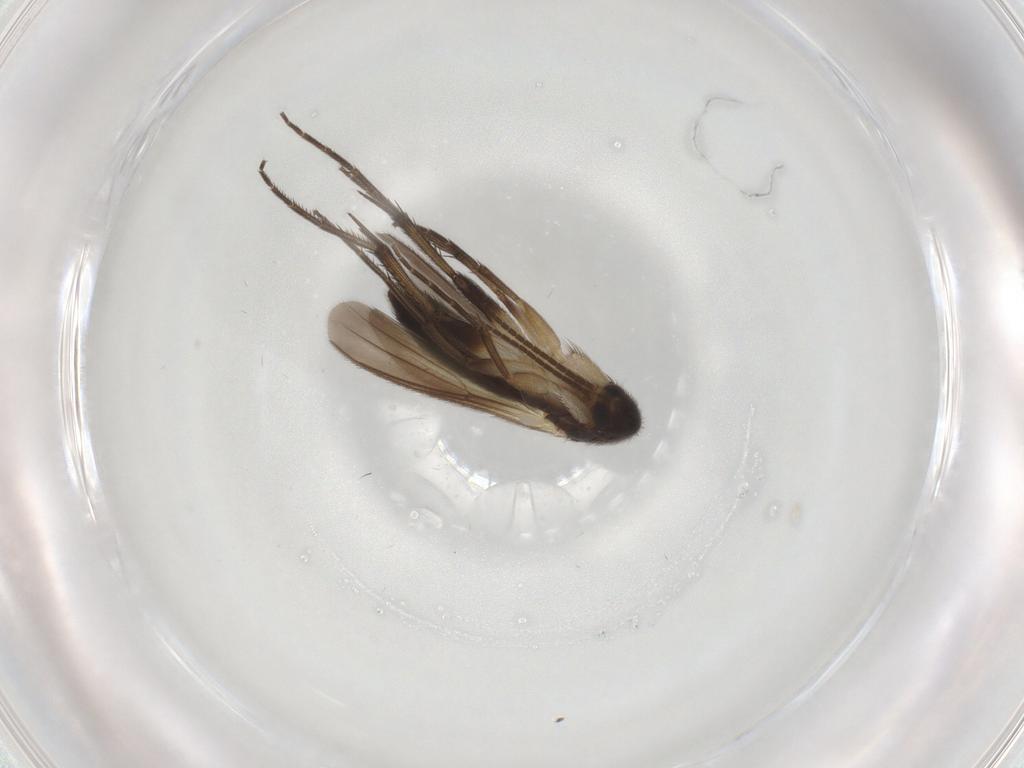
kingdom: Animalia
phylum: Arthropoda
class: Insecta
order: Diptera
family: Mycetophilidae
